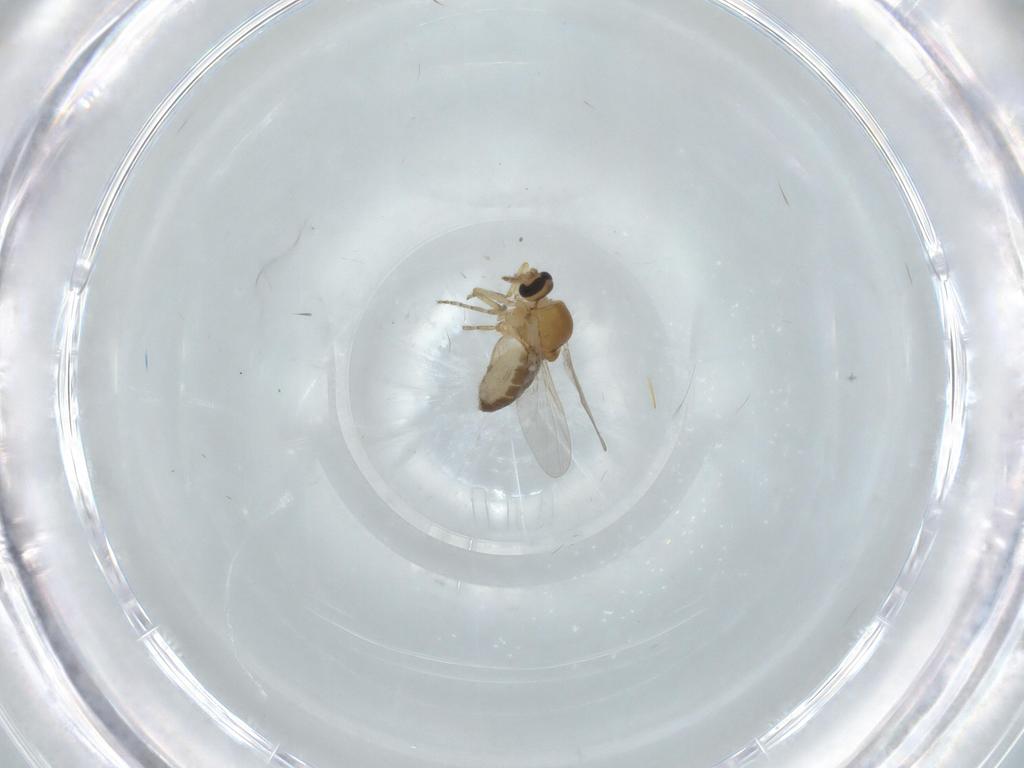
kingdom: Animalia
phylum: Arthropoda
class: Insecta
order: Diptera
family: Ceratopogonidae
